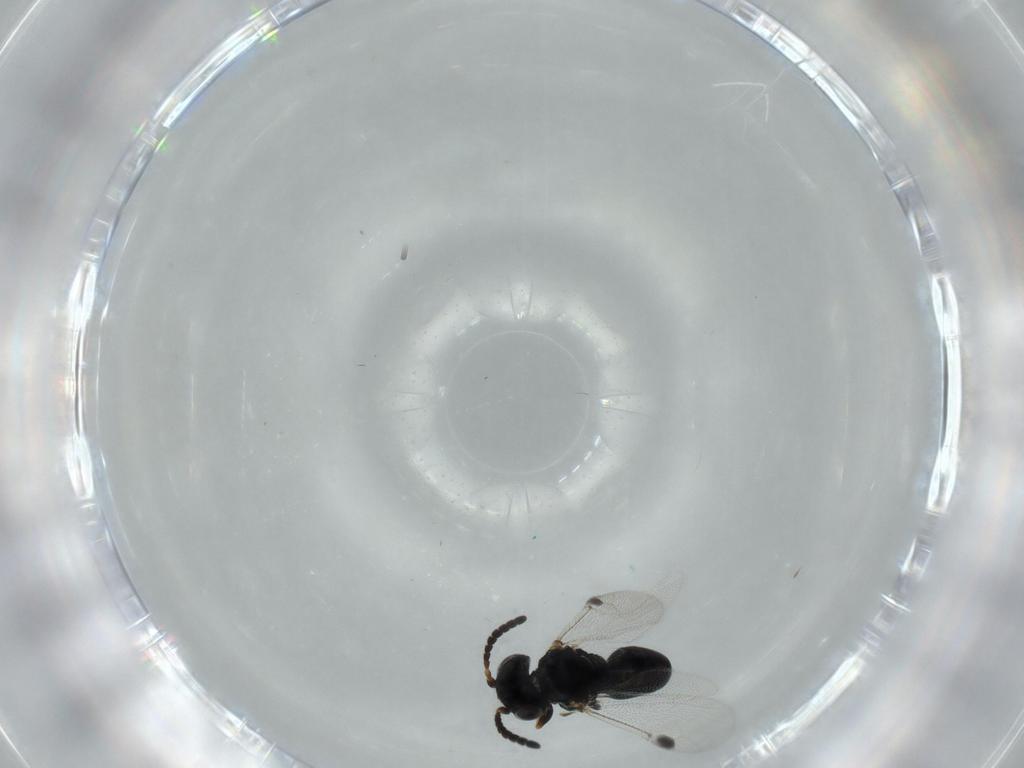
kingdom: Animalia
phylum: Arthropoda
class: Insecta
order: Hymenoptera
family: Dryinidae
